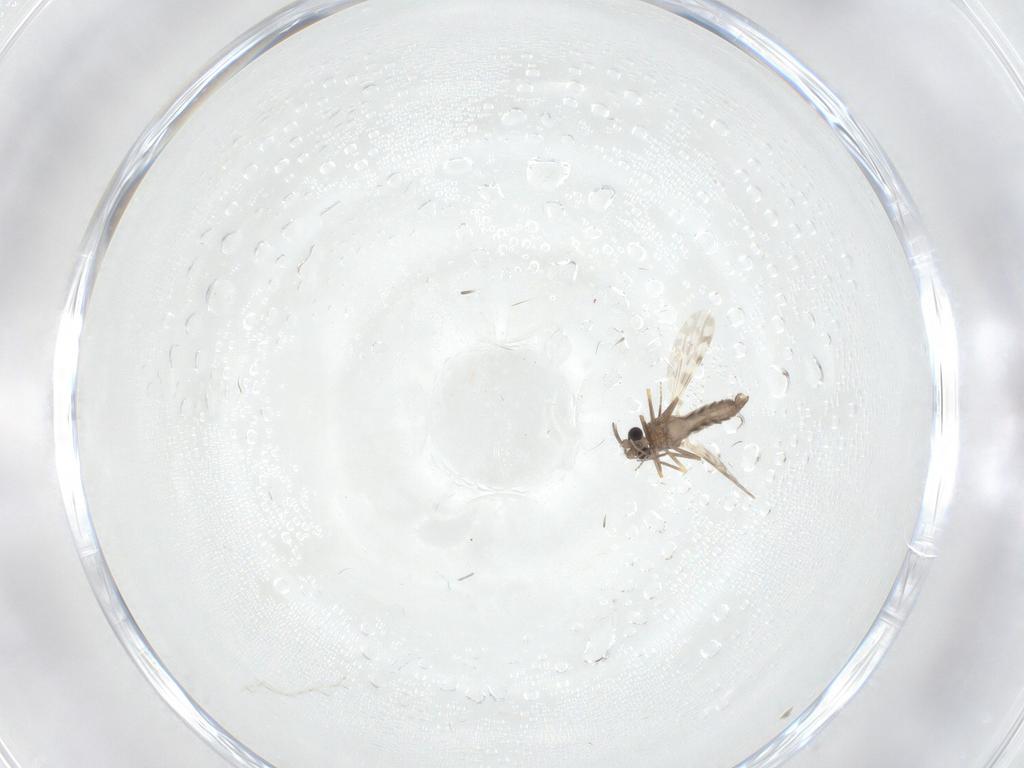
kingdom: Animalia
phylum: Arthropoda
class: Insecta
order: Diptera
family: Ceratopogonidae
